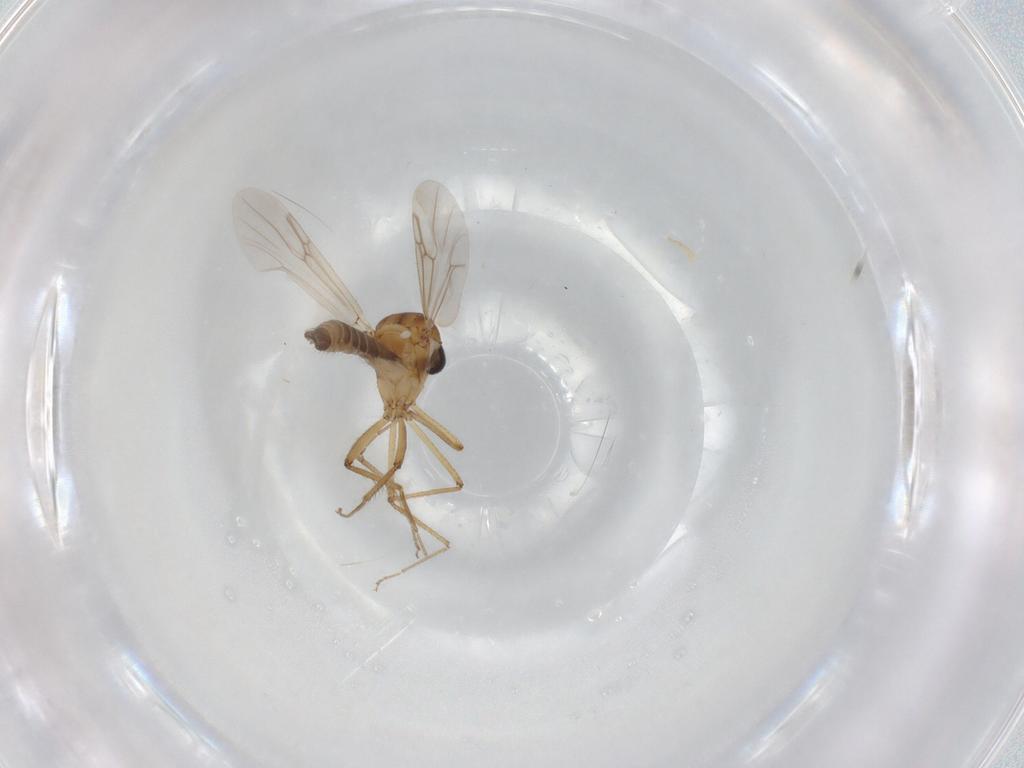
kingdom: Animalia
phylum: Arthropoda
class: Insecta
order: Diptera
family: Ceratopogonidae
